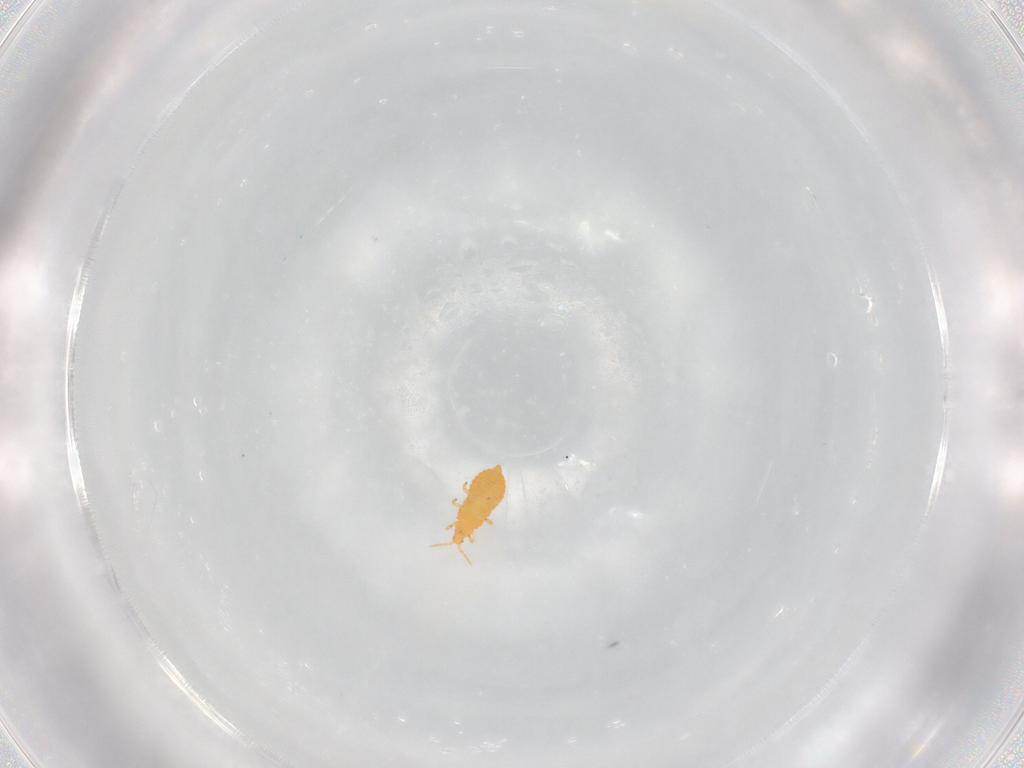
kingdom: Animalia
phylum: Arthropoda
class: Insecta
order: Thysanoptera
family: Heterothripidae
